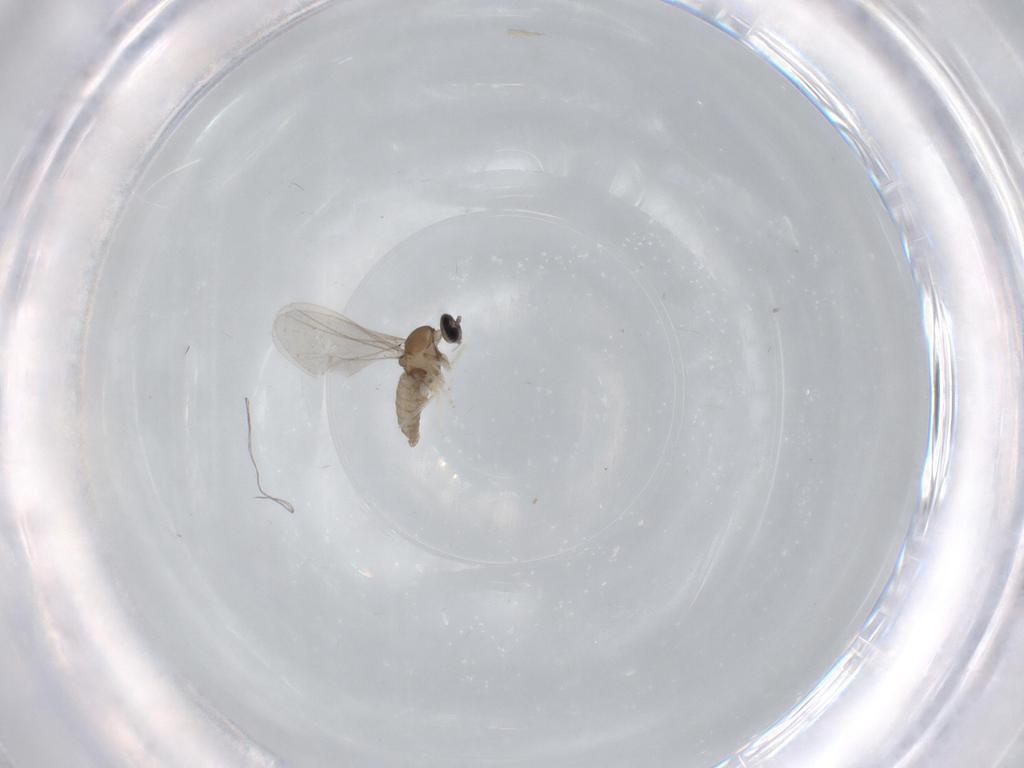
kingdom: Animalia
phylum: Arthropoda
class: Insecta
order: Diptera
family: Cecidomyiidae
